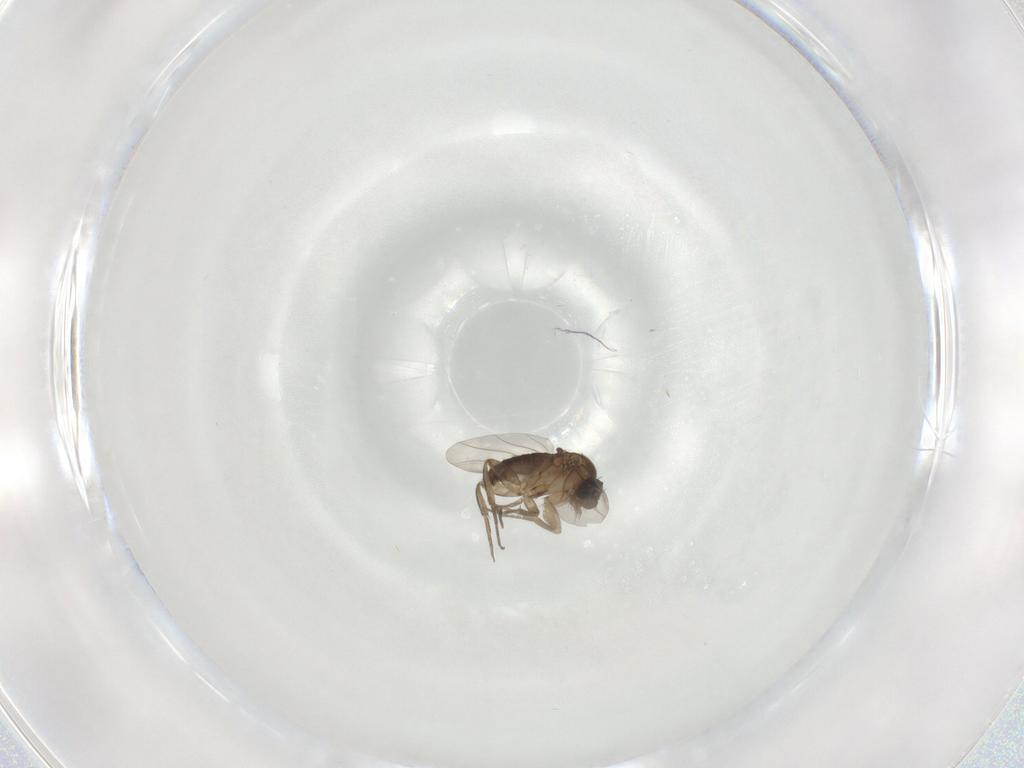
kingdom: Animalia
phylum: Arthropoda
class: Insecta
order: Diptera
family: Phoridae
